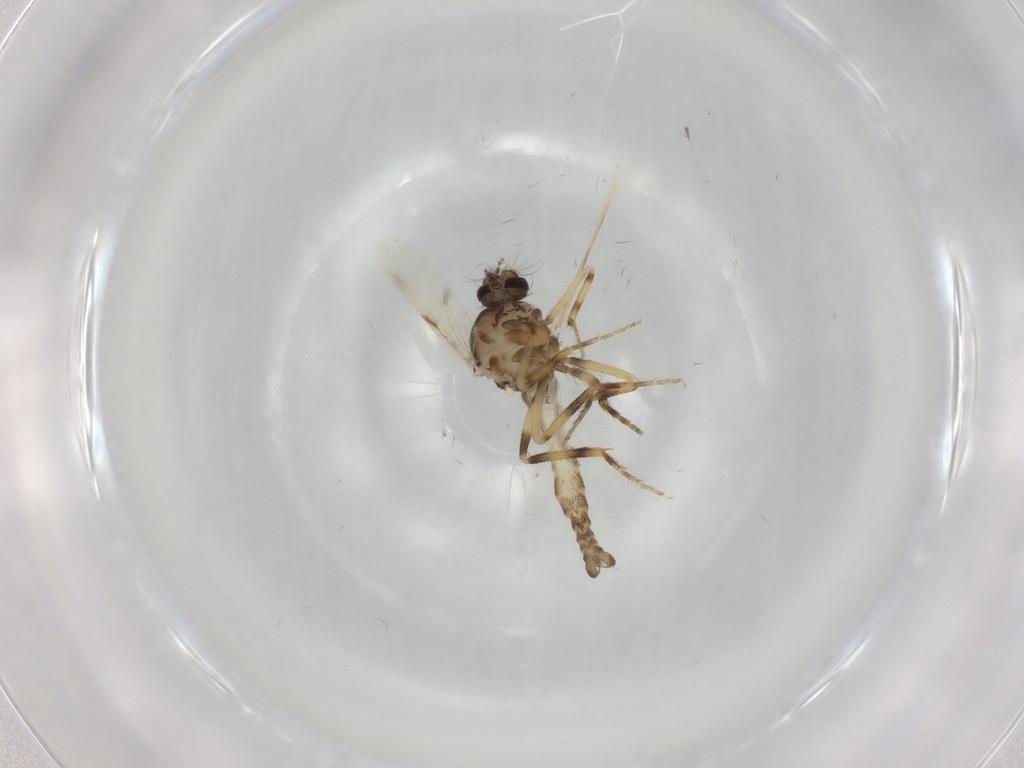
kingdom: Animalia
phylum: Arthropoda
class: Insecta
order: Diptera
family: Ceratopogonidae
